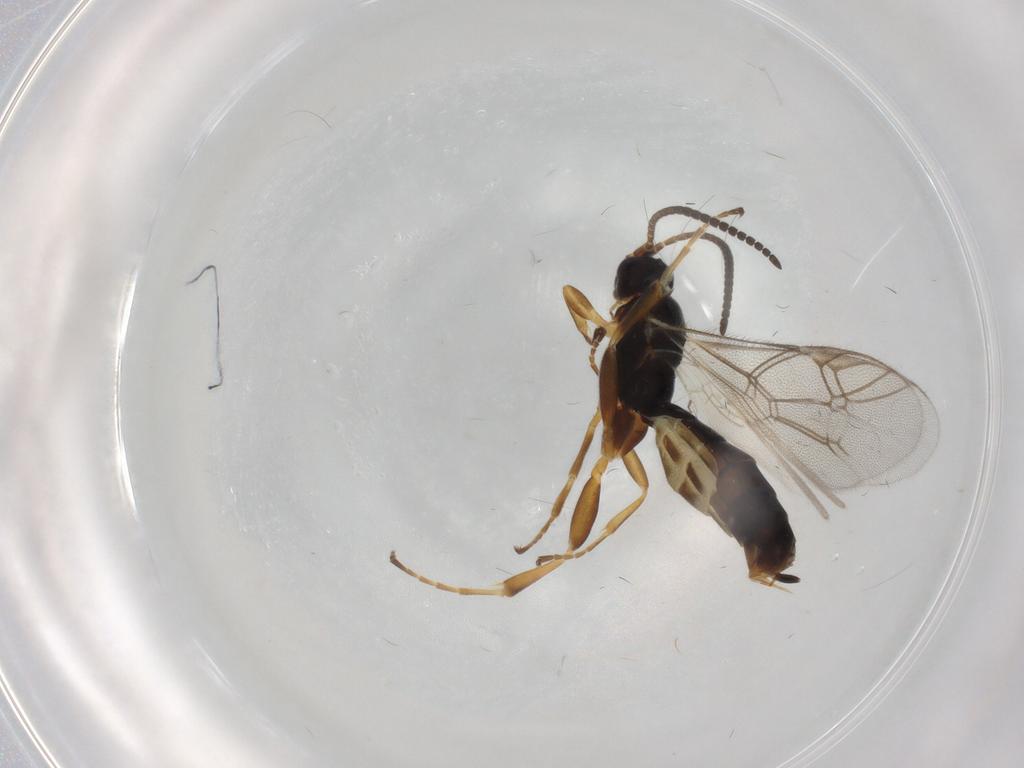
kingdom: Animalia
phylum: Arthropoda
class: Insecta
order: Hymenoptera
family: Ichneumonidae
